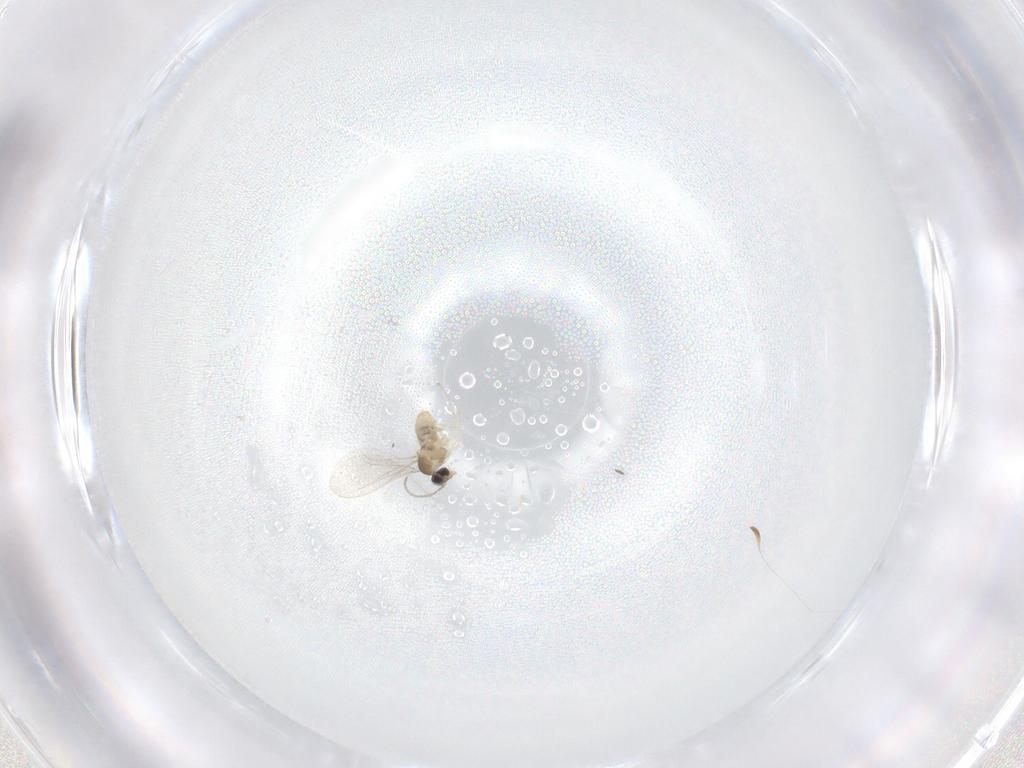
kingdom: Animalia
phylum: Arthropoda
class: Insecta
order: Diptera
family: Cecidomyiidae
